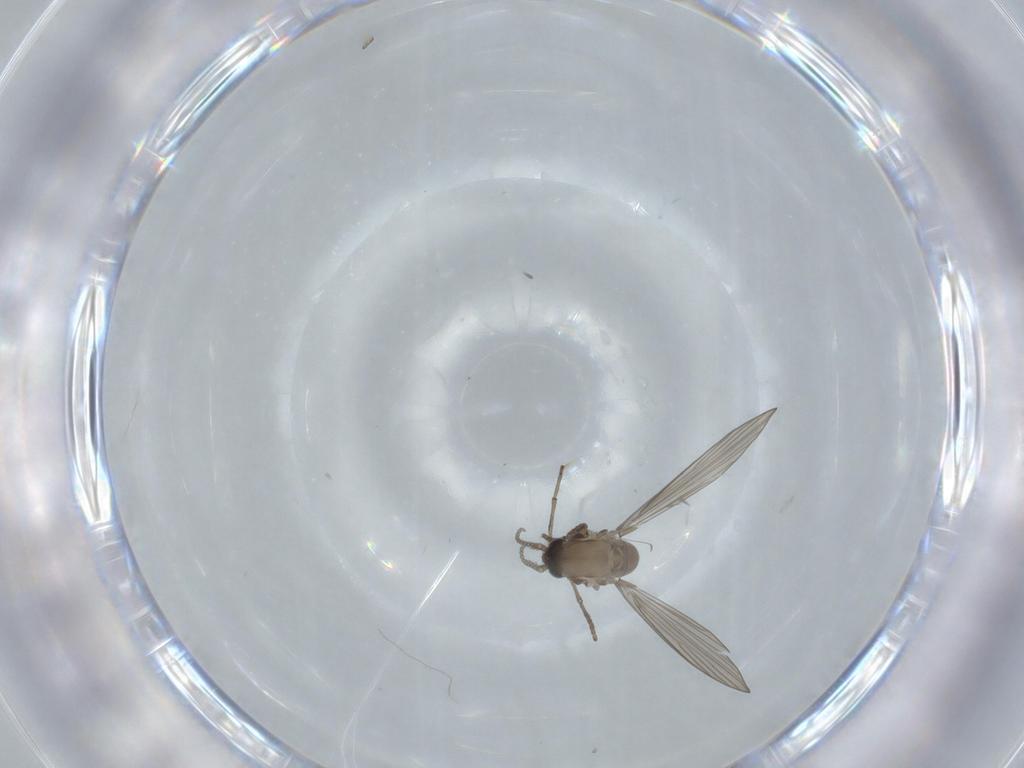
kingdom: Animalia
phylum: Arthropoda
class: Insecta
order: Diptera
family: Psychodidae
